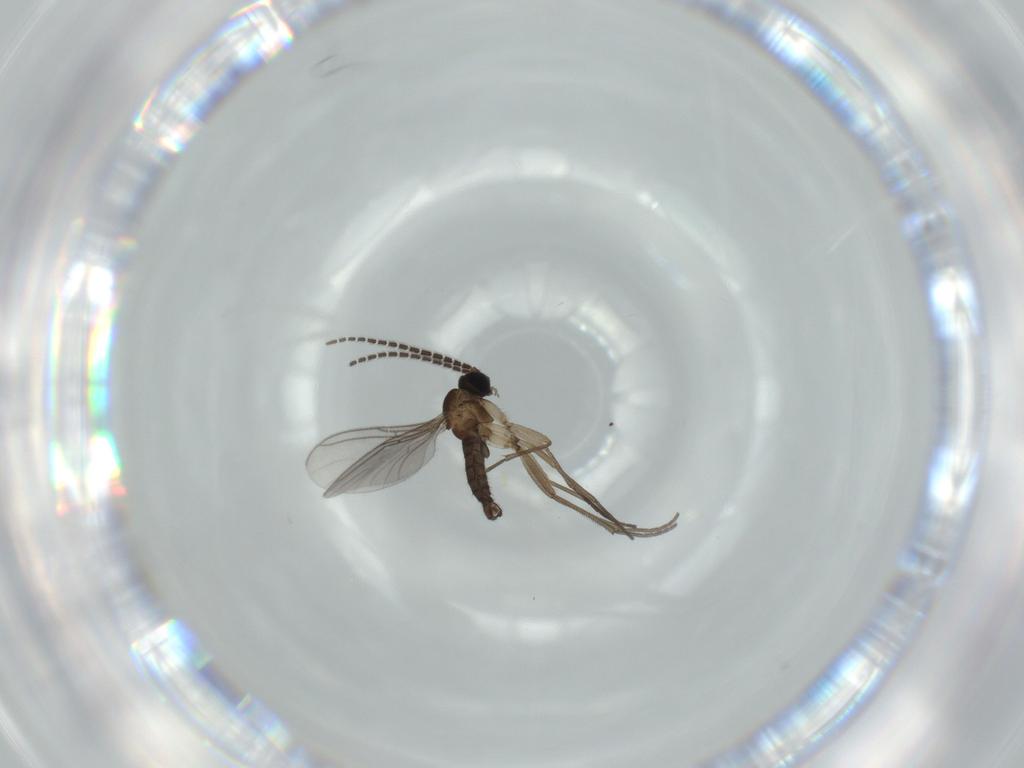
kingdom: Animalia
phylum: Arthropoda
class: Insecta
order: Diptera
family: Sciaridae
